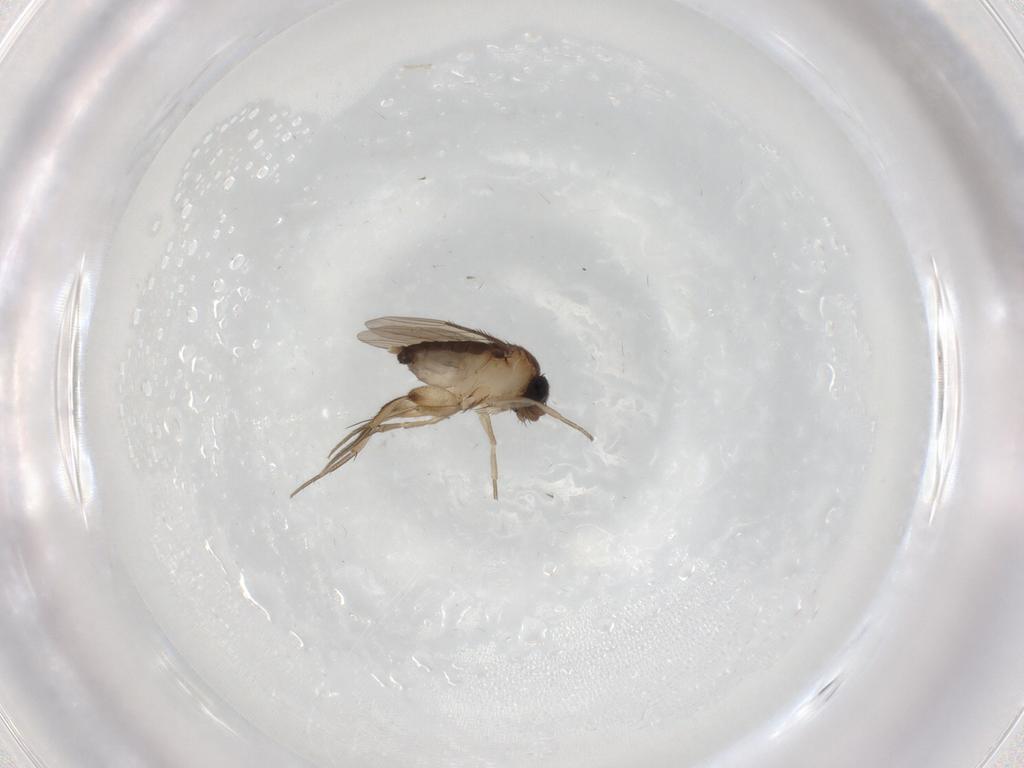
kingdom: Animalia
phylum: Arthropoda
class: Insecta
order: Diptera
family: Phoridae
